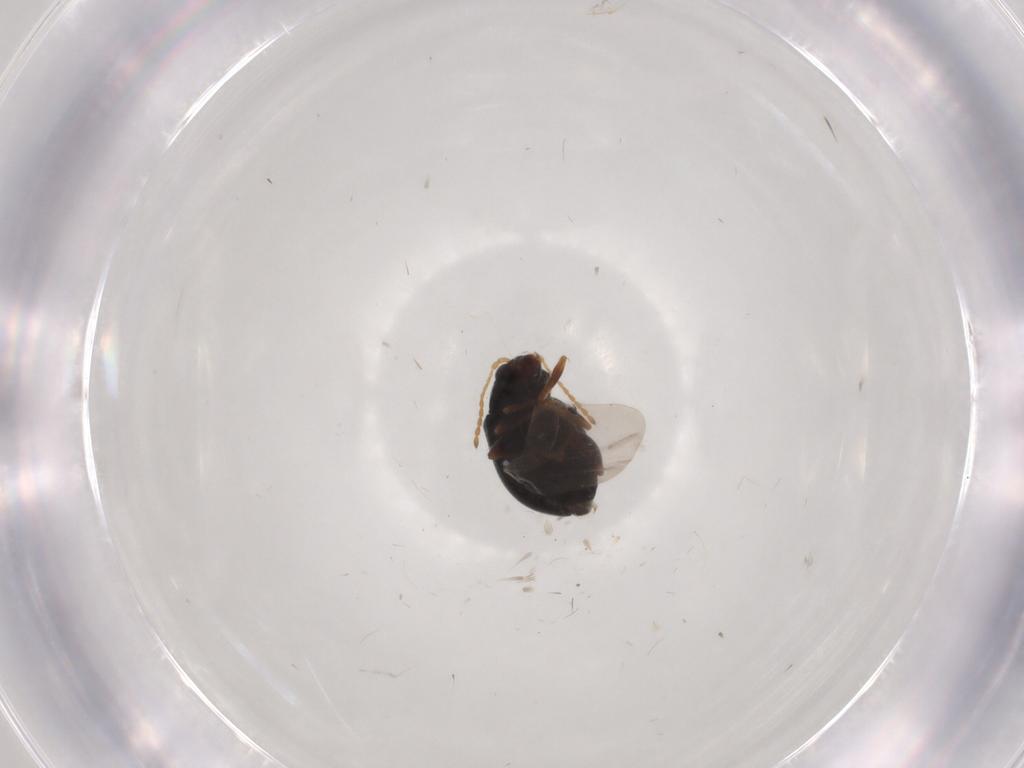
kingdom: Animalia
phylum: Arthropoda
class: Insecta
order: Coleoptera
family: Chrysomelidae
